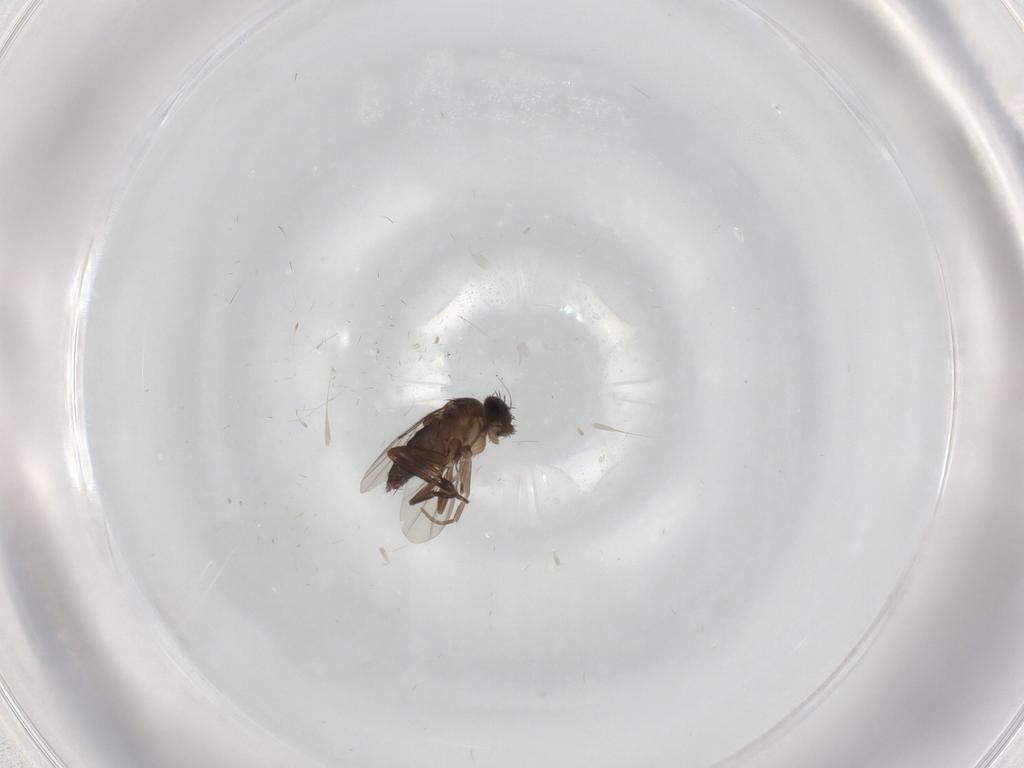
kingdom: Animalia
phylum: Arthropoda
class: Insecta
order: Diptera
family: Phoridae
